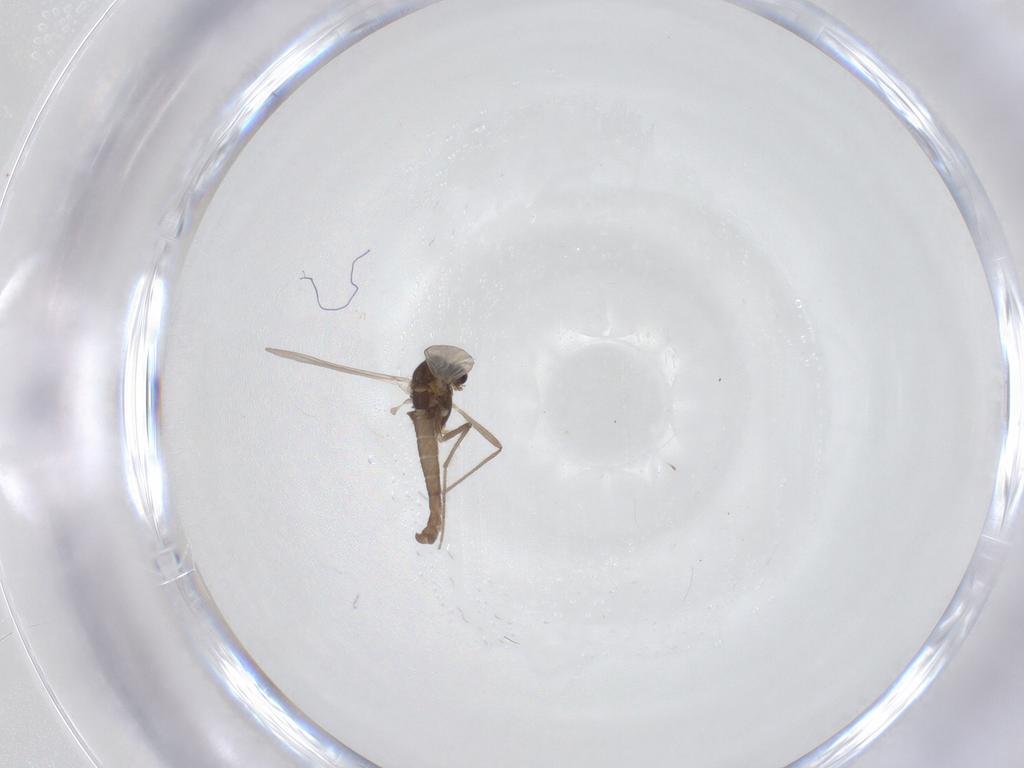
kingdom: Animalia
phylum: Arthropoda
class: Insecta
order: Diptera
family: Chironomidae
